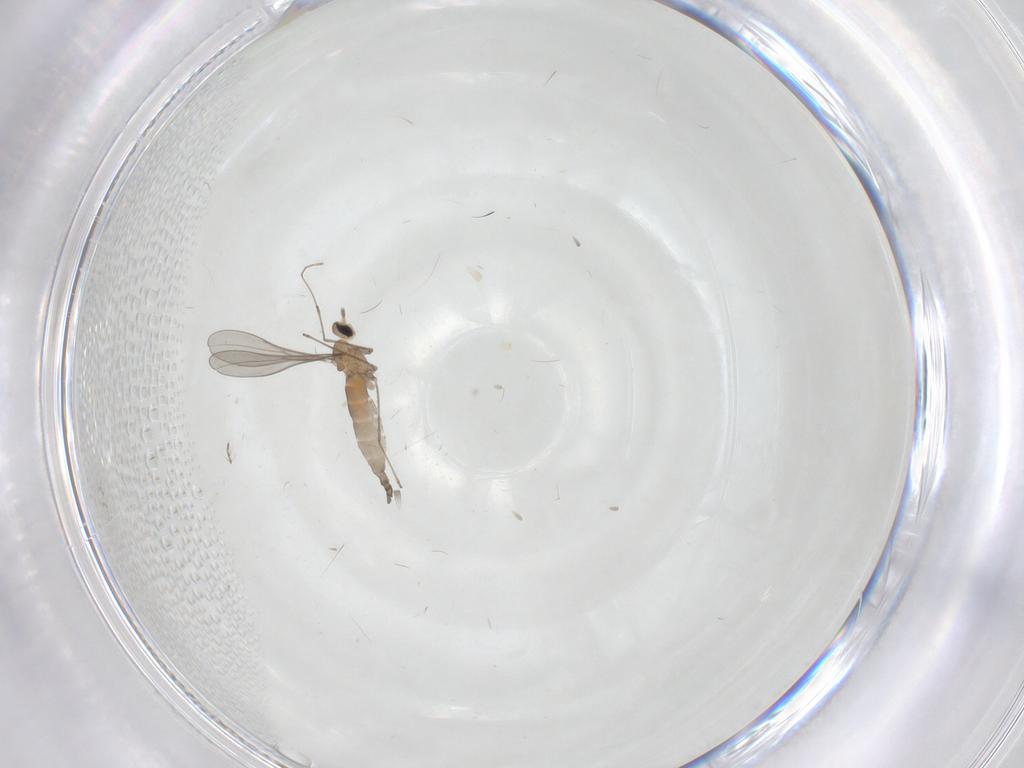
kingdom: Animalia
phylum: Arthropoda
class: Insecta
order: Diptera
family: Cecidomyiidae
